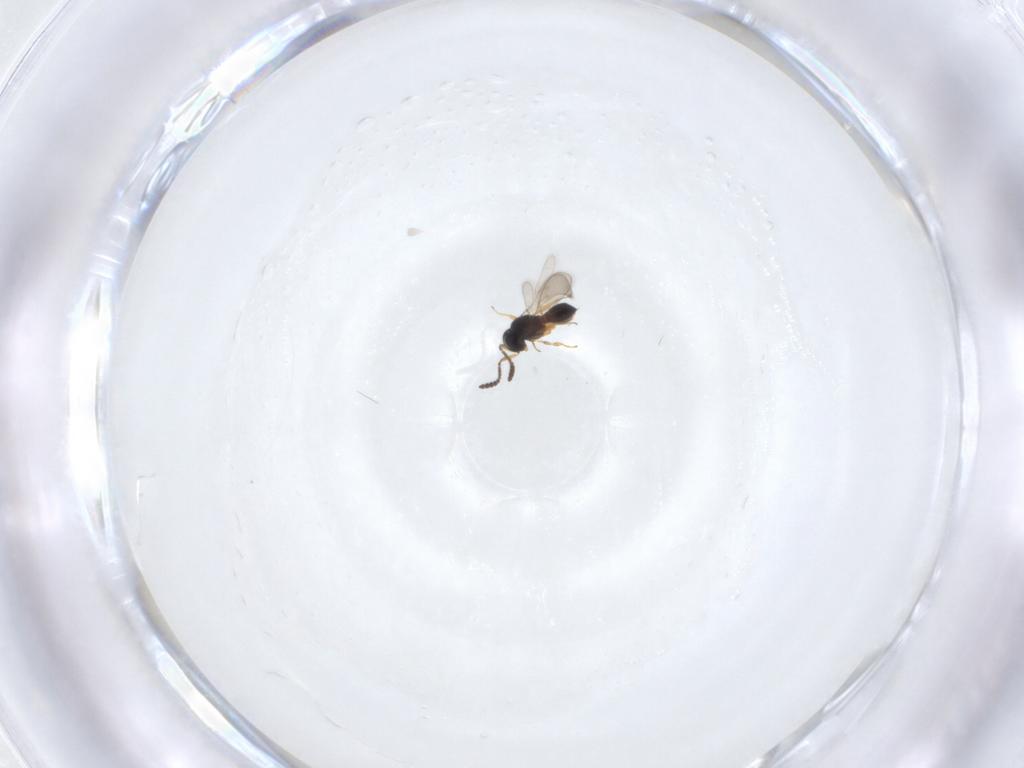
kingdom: Animalia
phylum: Arthropoda
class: Insecta
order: Hymenoptera
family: Scelionidae
